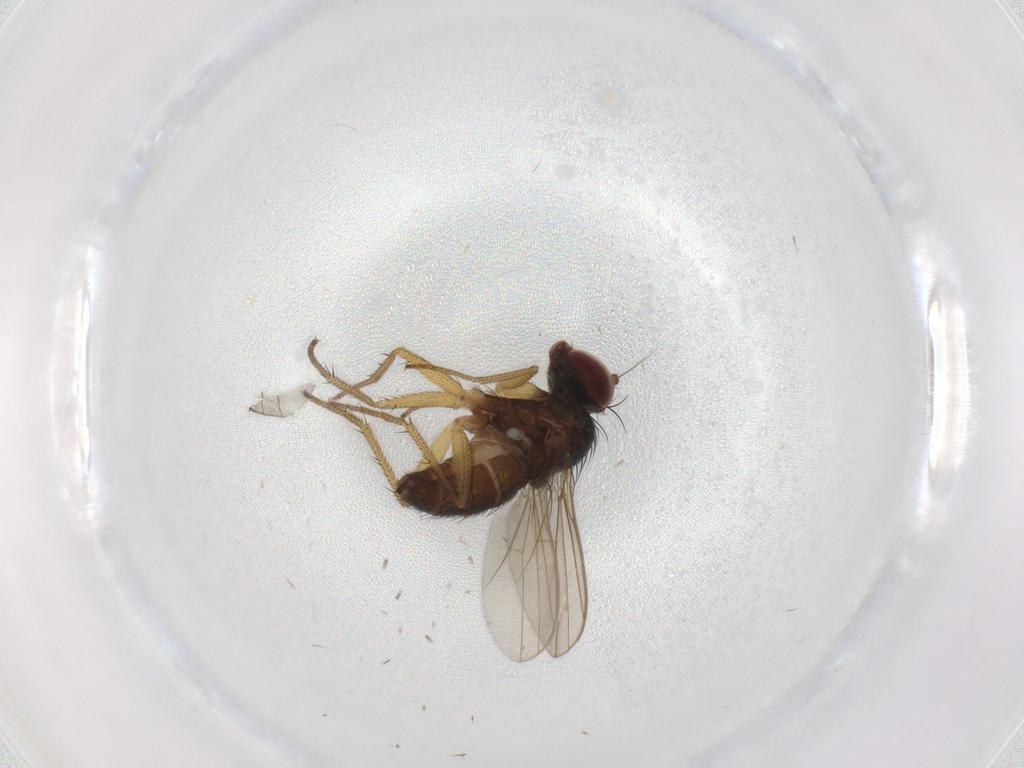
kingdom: Animalia
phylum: Arthropoda
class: Insecta
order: Diptera
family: Dolichopodidae
